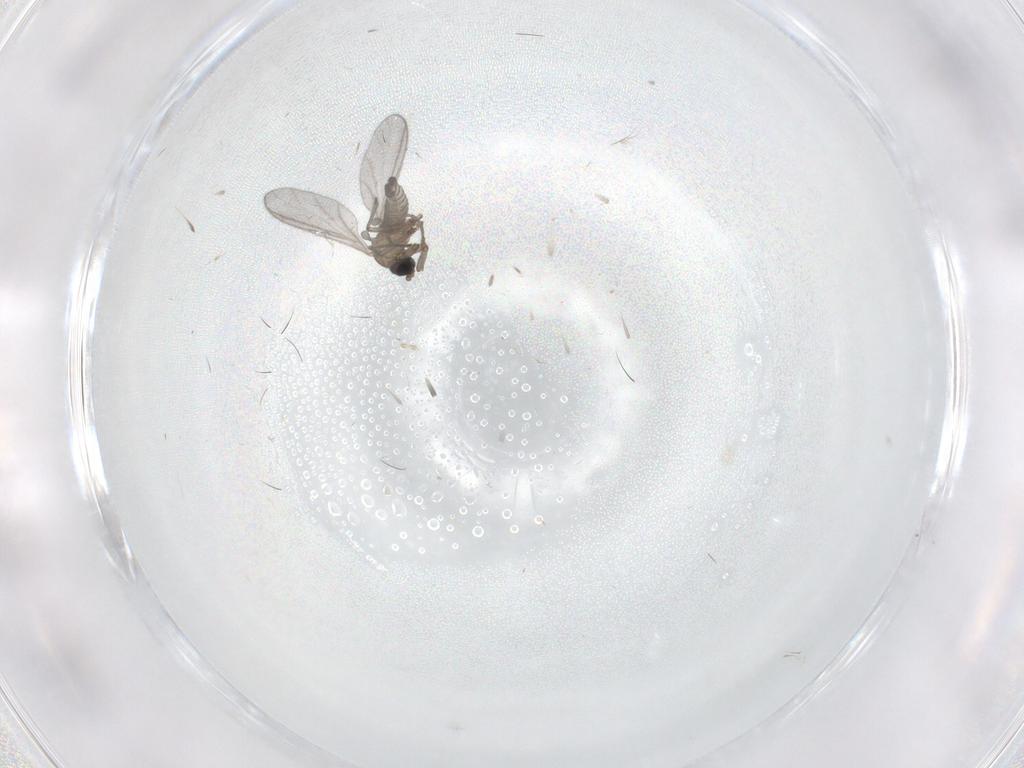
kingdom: Animalia
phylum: Arthropoda
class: Insecta
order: Diptera
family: Sciaridae
